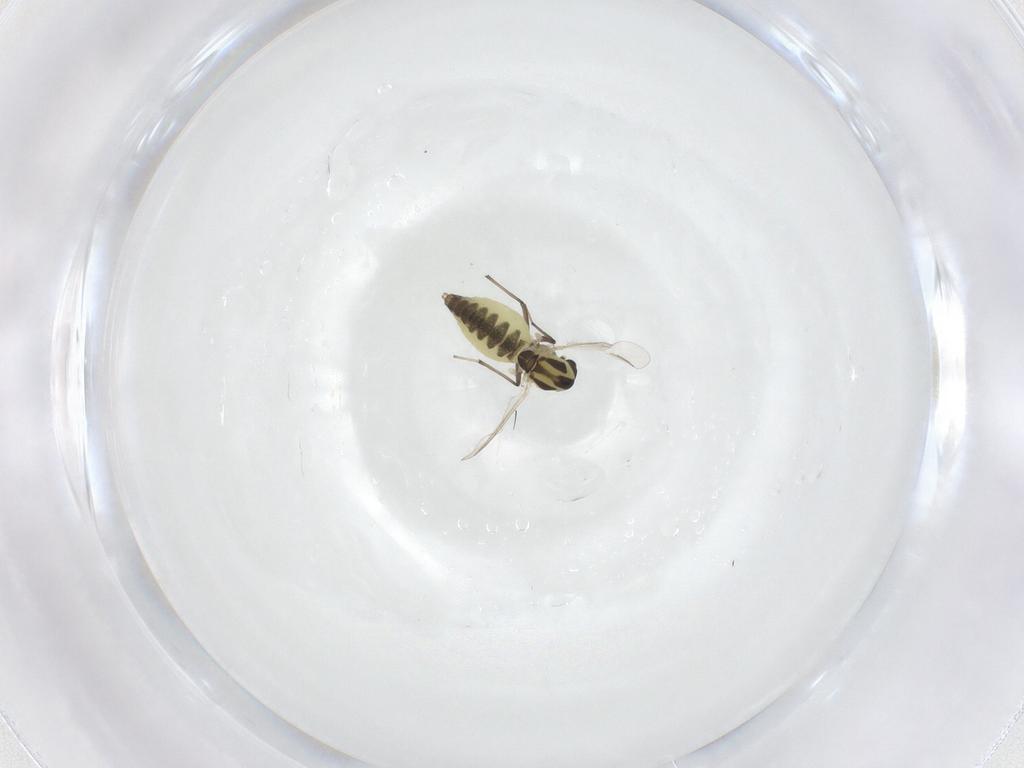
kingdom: Animalia
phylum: Arthropoda
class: Insecta
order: Diptera
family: Chironomidae
